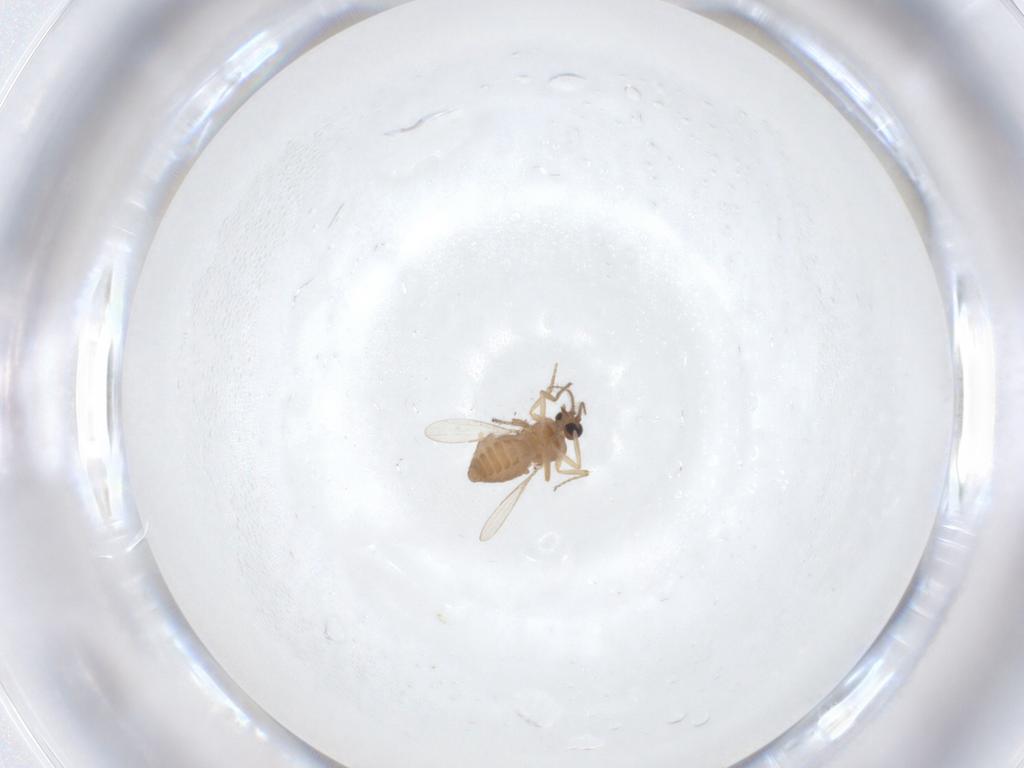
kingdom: Animalia
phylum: Arthropoda
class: Insecta
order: Diptera
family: Ceratopogonidae
